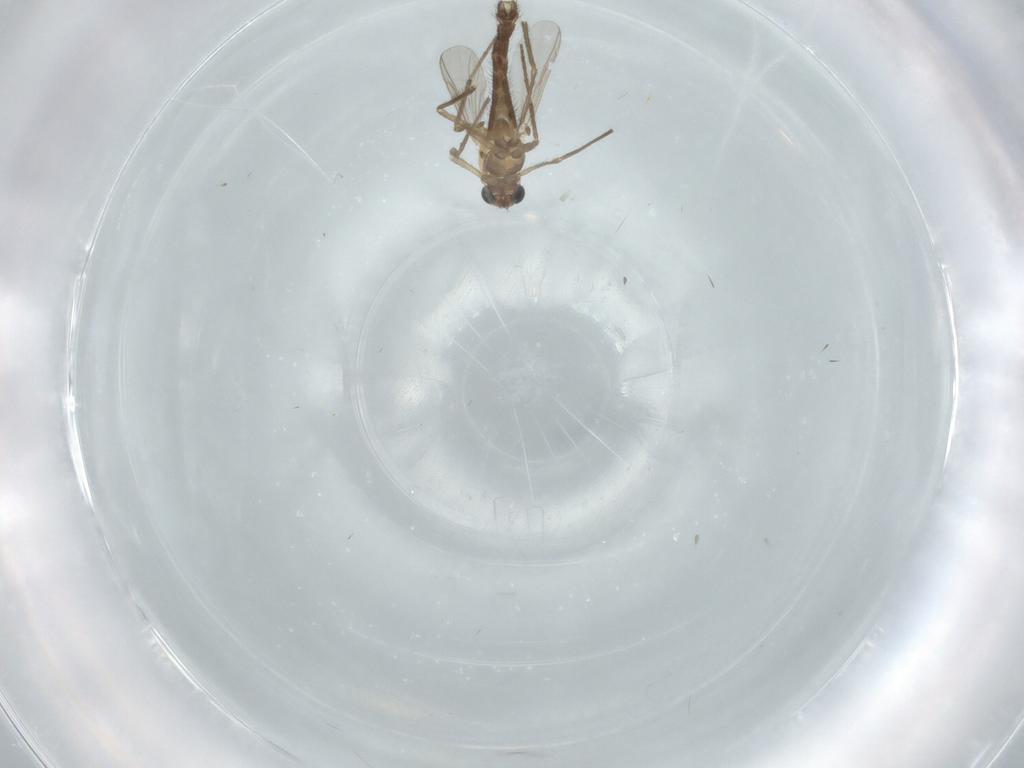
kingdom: Animalia
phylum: Arthropoda
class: Insecta
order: Diptera
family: Chironomidae
